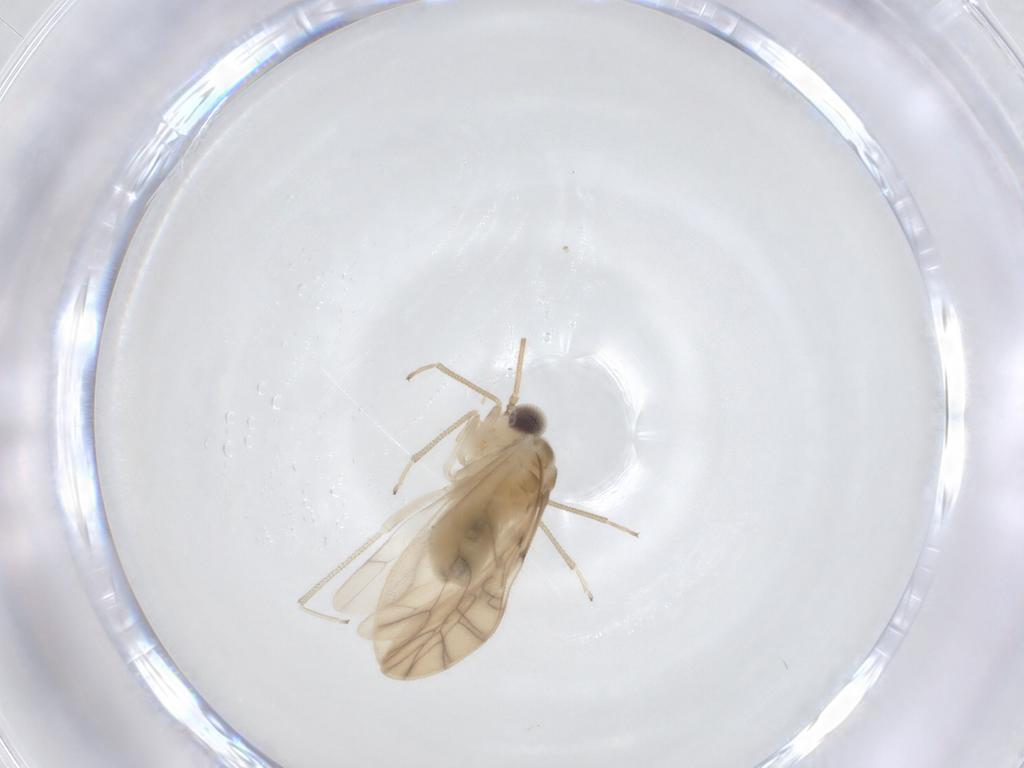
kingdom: Animalia
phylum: Arthropoda
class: Insecta
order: Psocodea
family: Caeciliusidae
